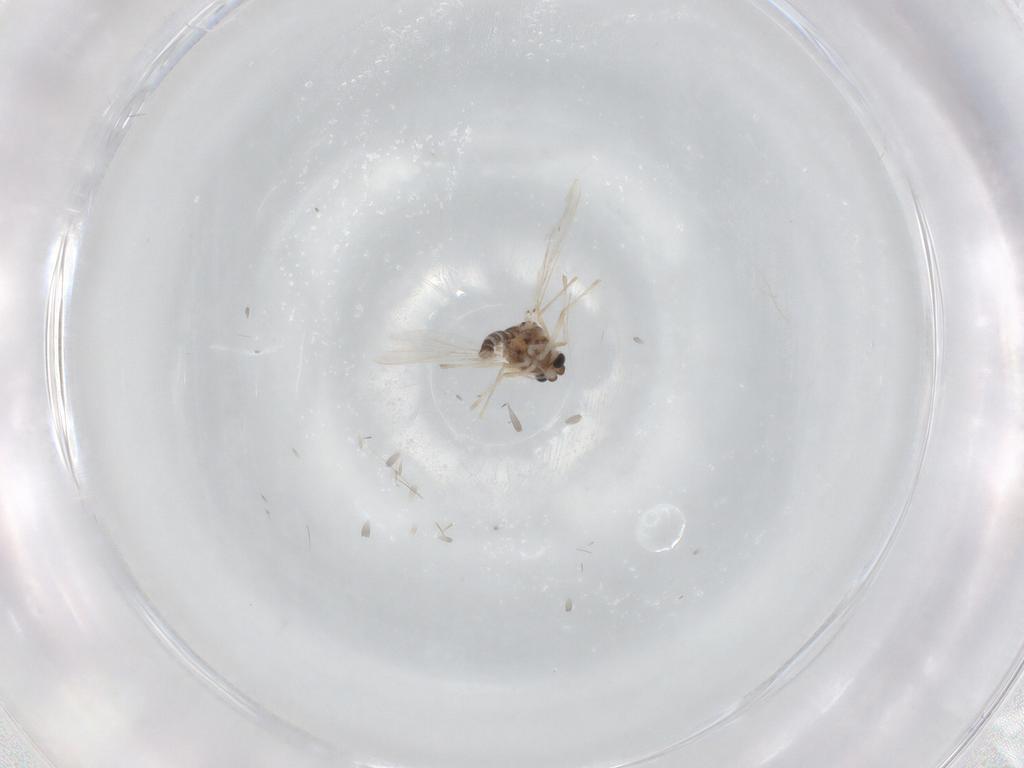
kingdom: Animalia
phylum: Arthropoda
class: Insecta
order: Diptera
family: Chironomidae
